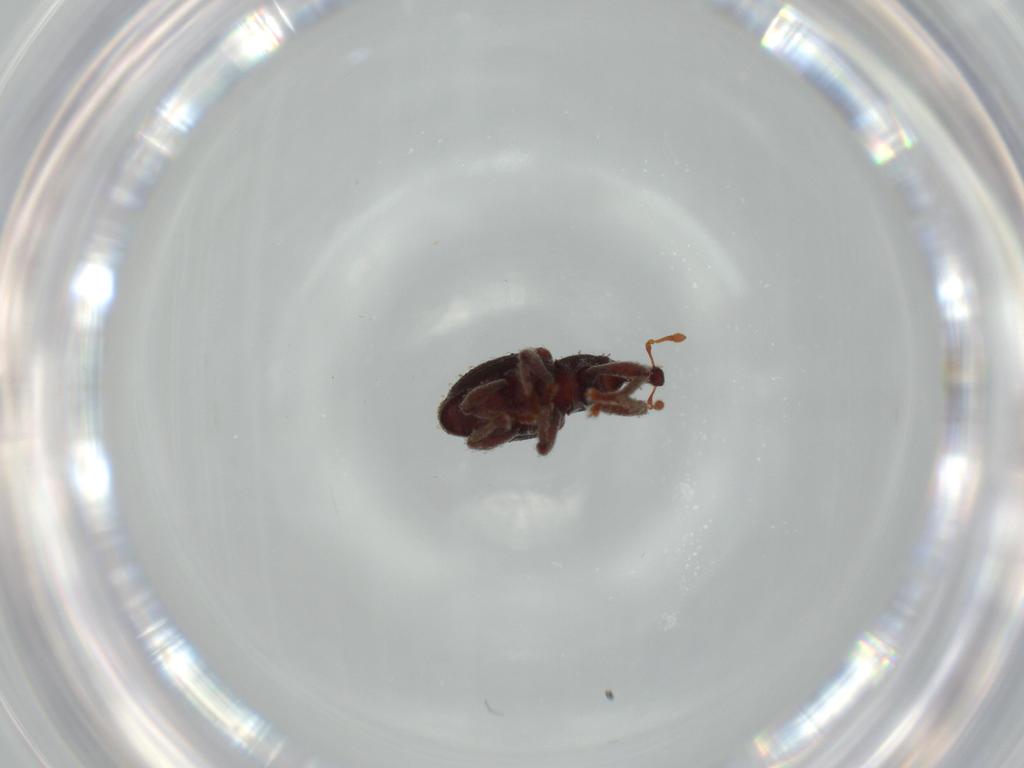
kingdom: Animalia
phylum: Arthropoda
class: Insecta
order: Coleoptera
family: Curculionidae
